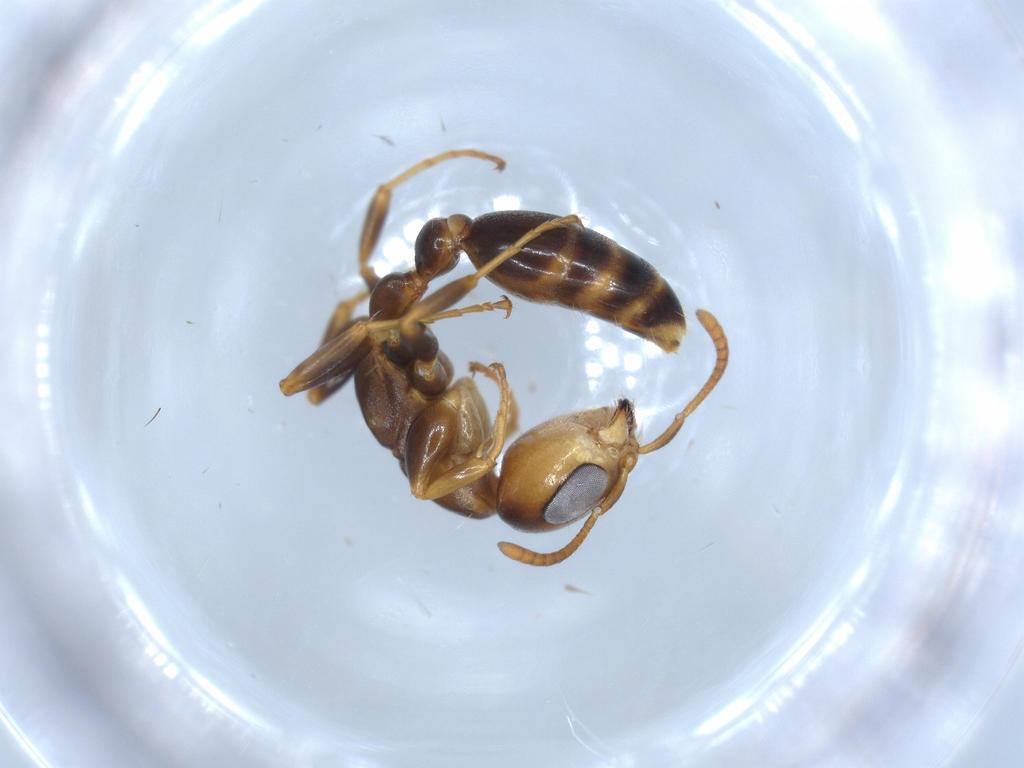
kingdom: Animalia
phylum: Arthropoda
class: Insecta
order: Hymenoptera
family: Formicidae
